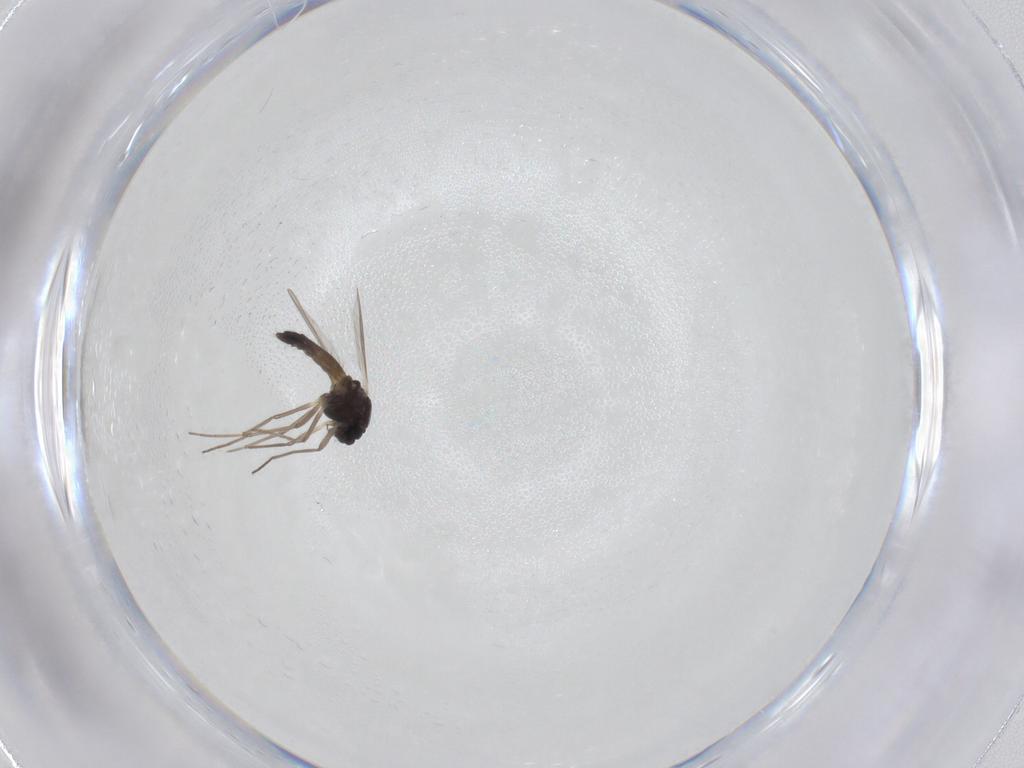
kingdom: Animalia
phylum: Arthropoda
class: Insecta
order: Diptera
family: Chironomidae
